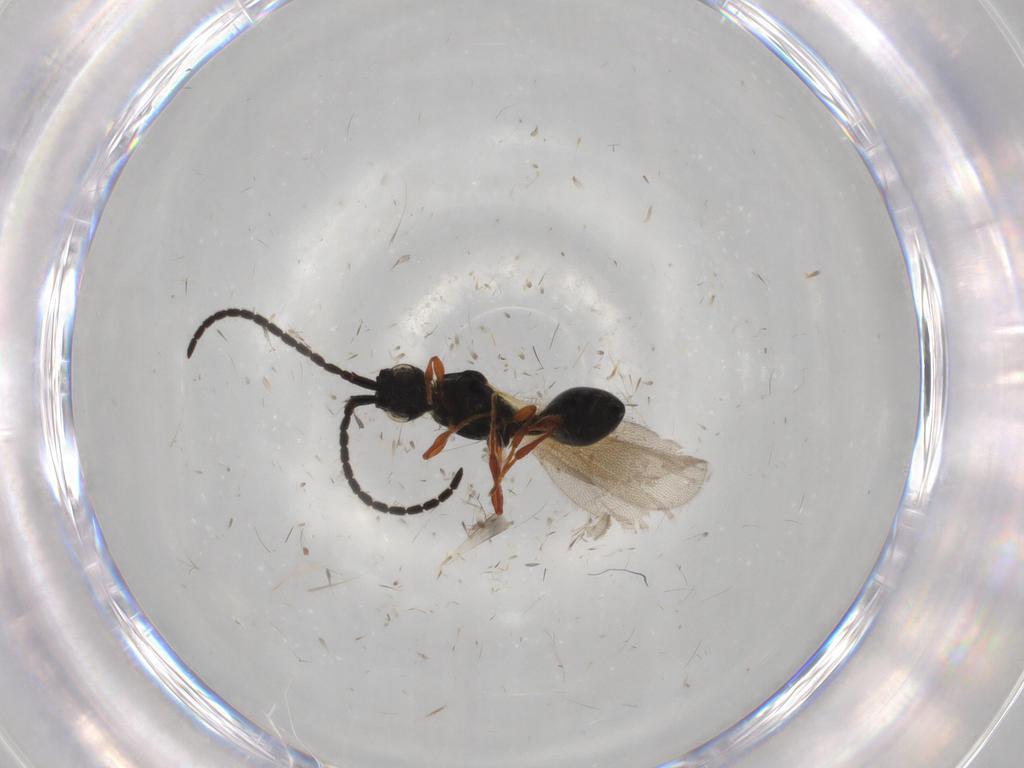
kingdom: Animalia
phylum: Arthropoda
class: Insecta
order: Hymenoptera
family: Diapriidae
